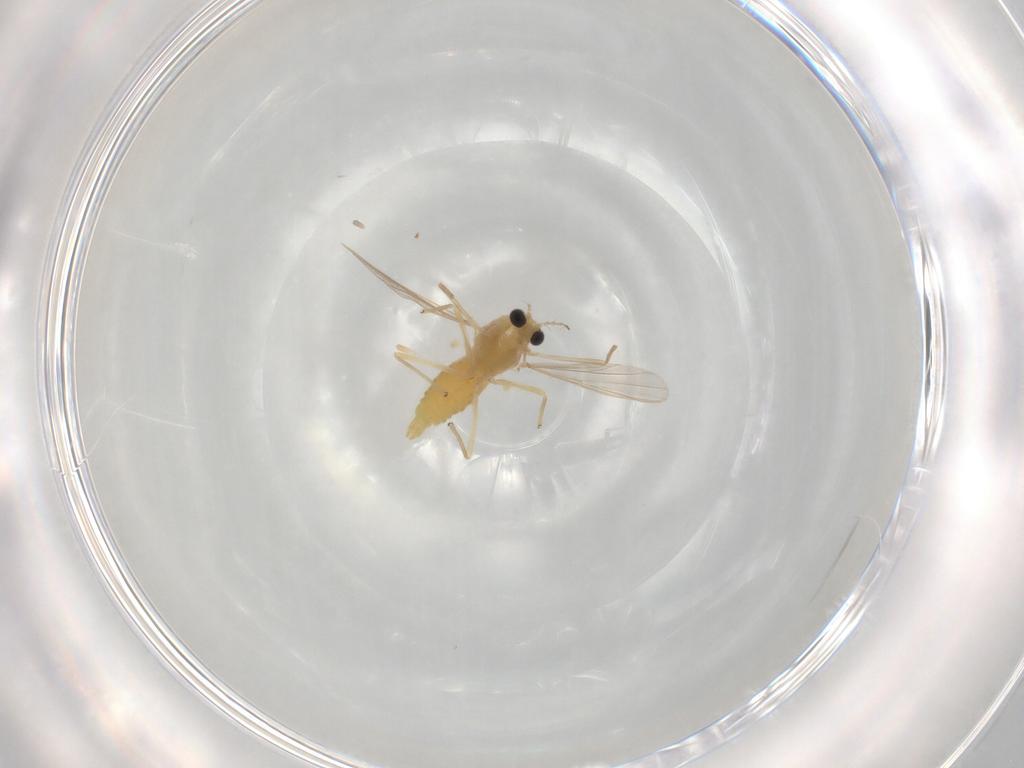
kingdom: Animalia
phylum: Arthropoda
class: Insecta
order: Diptera
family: Chironomidae
